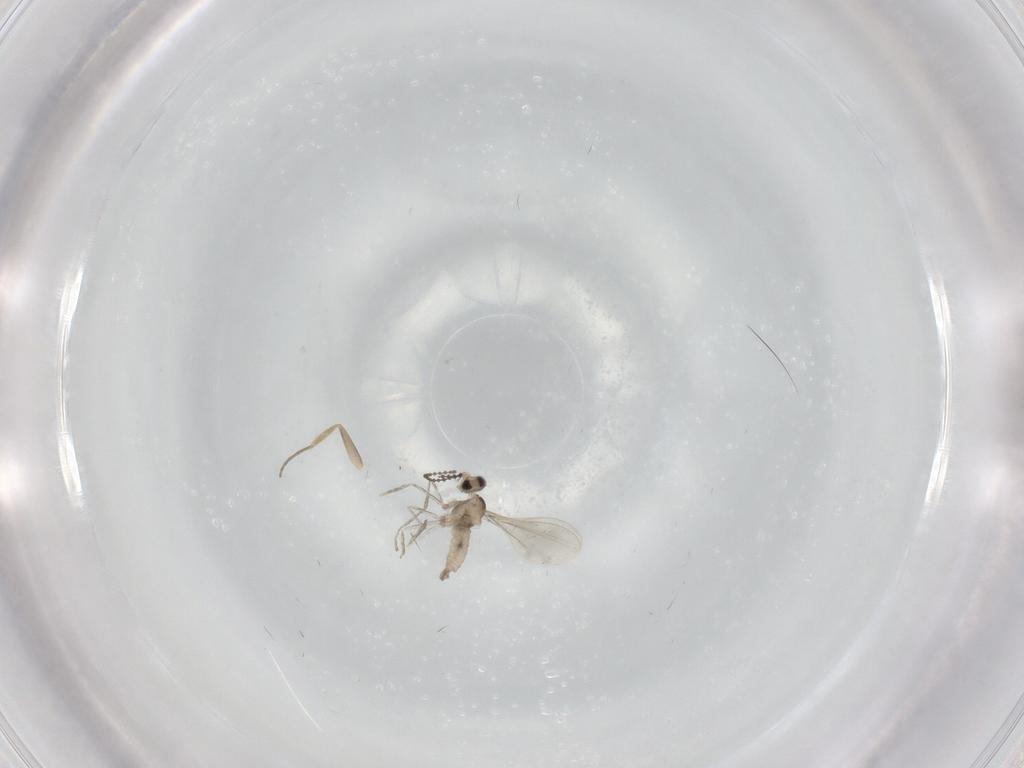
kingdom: Animalia
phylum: Arthropoda
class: Insecta
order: Diptera
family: Cecidomyiidae
